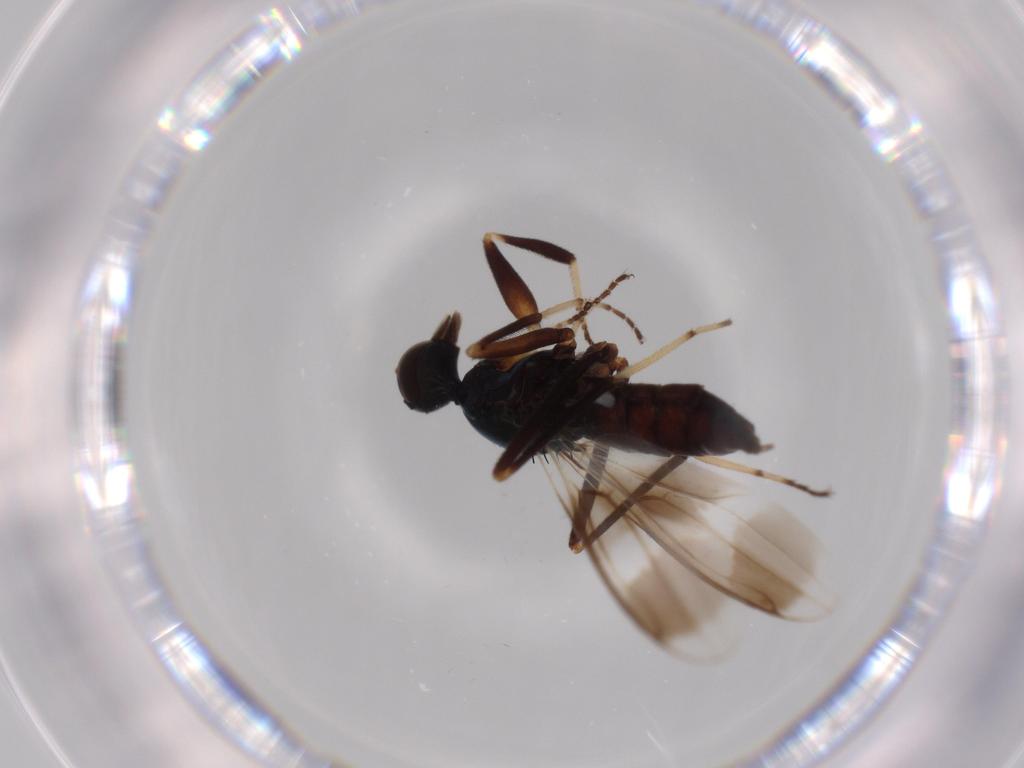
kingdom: Animalia
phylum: Arthropoda
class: Insecta
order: Diptera
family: Hybotidae
